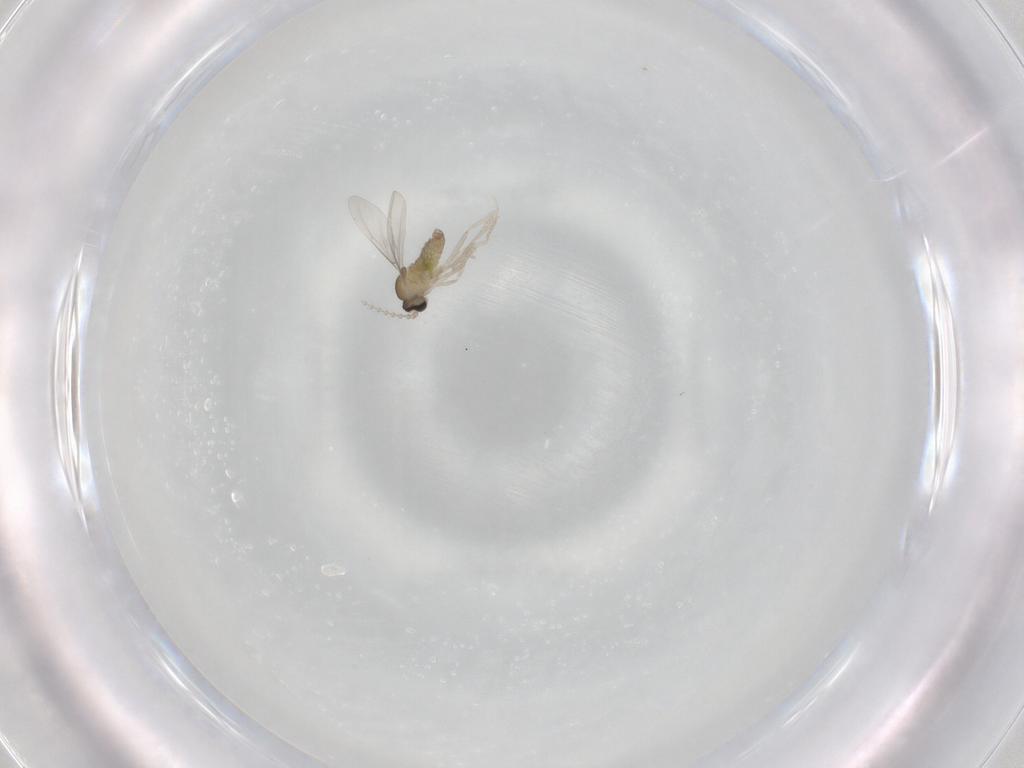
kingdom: Animalia
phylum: Arthropoda
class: Insecta
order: Diptera
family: Cecidomyiidae
